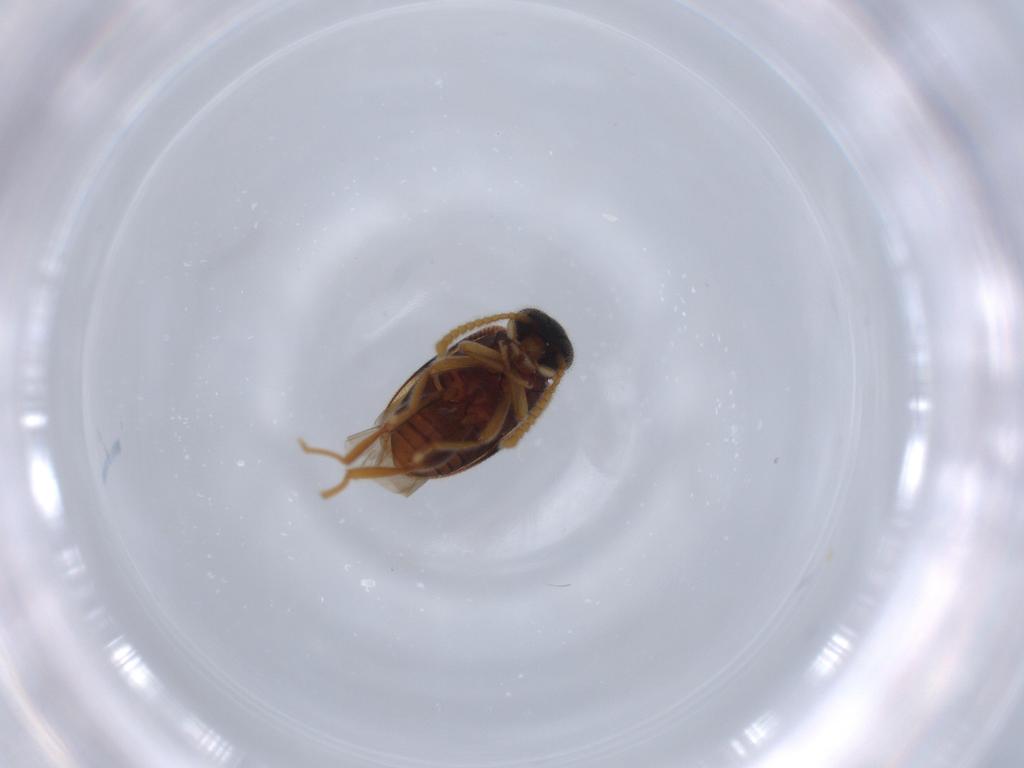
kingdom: Animalia
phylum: Arthropoda
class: Insecta
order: Coleoptera
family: Aderidae
